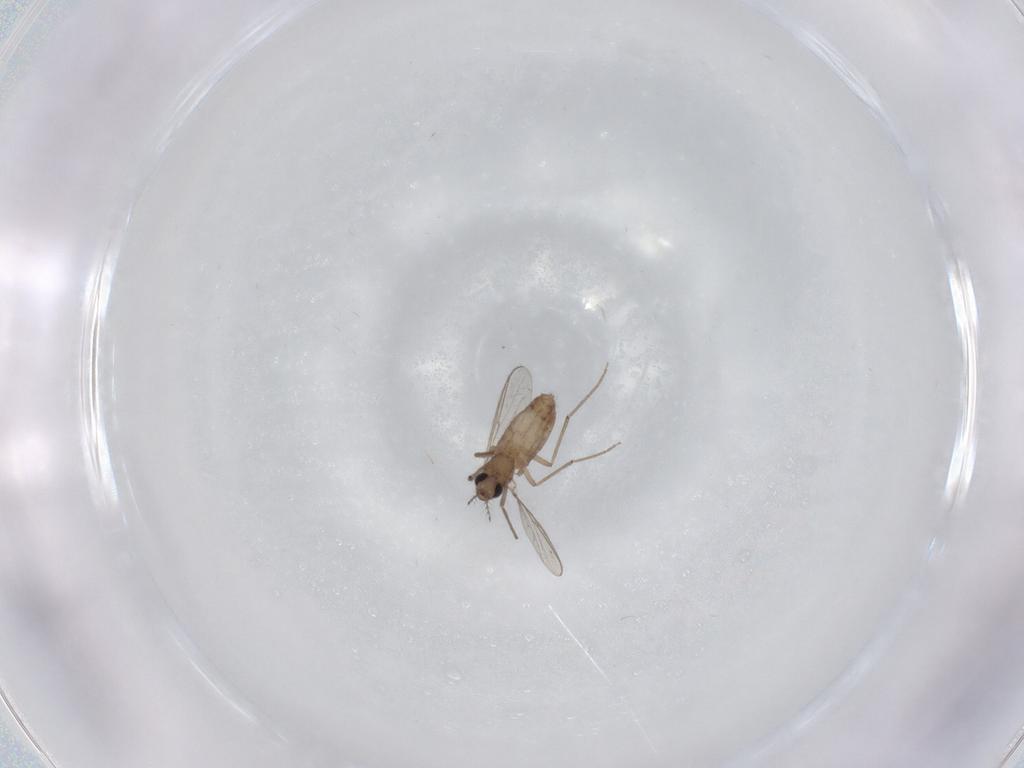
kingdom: Animalia
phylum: Arthropoda
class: Insecta
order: Diptera
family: Chironomidae
